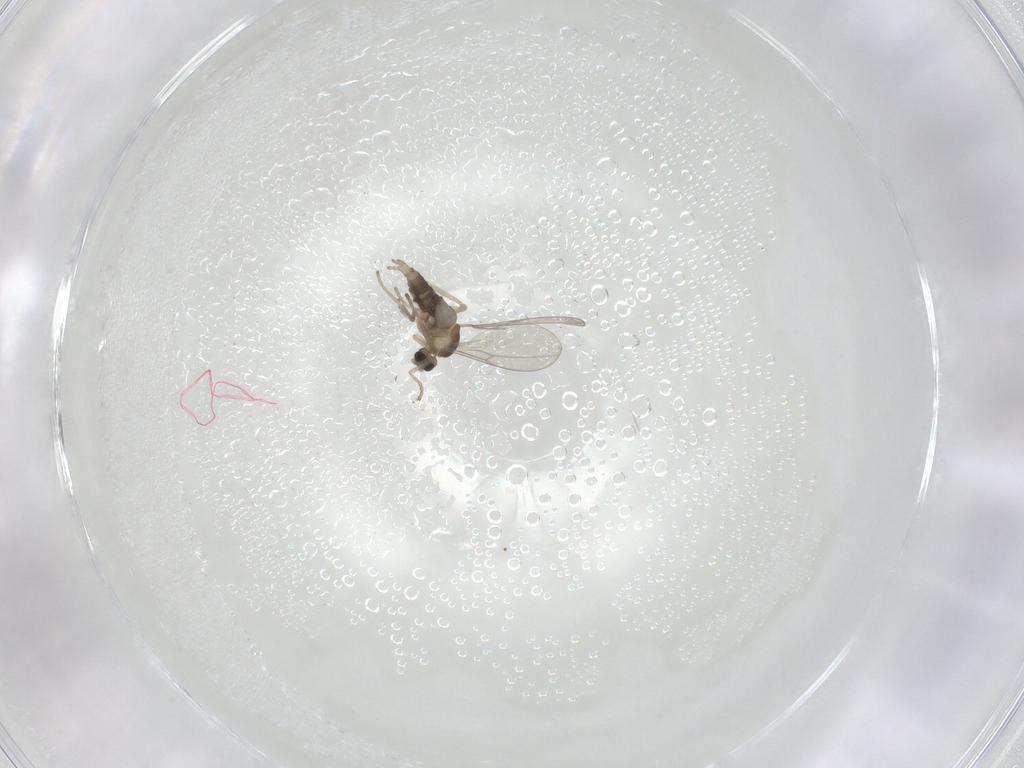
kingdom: Animalia
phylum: Arthropoda
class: Insecta
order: Diptera
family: Cecidomyiidae
